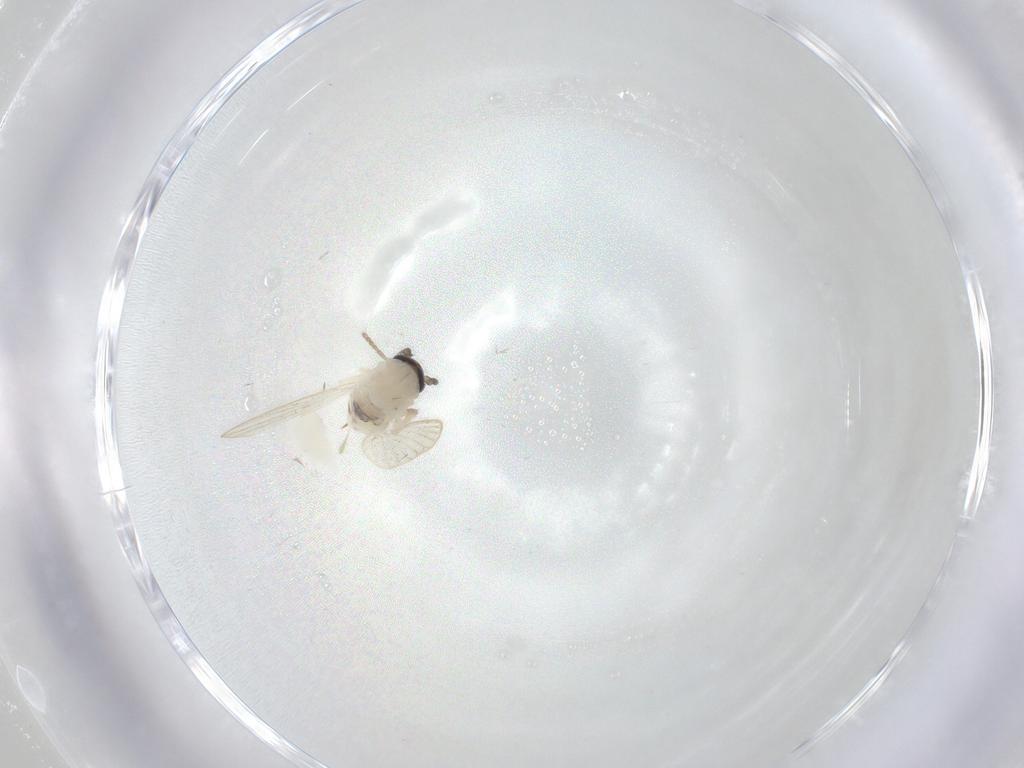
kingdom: Animalia
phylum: Arthropoda
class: Insecta
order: Diptera
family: Psychodidae
